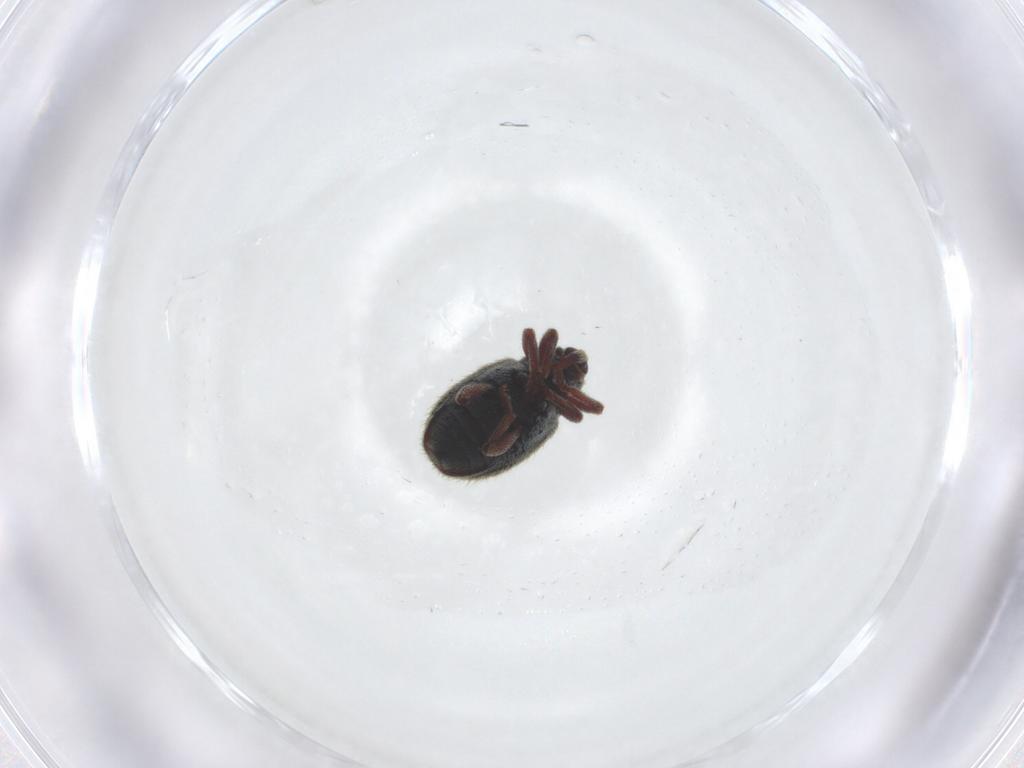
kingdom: Animalia
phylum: Arthropoda
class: Insecta
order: Coleoptera
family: Curculionidae
